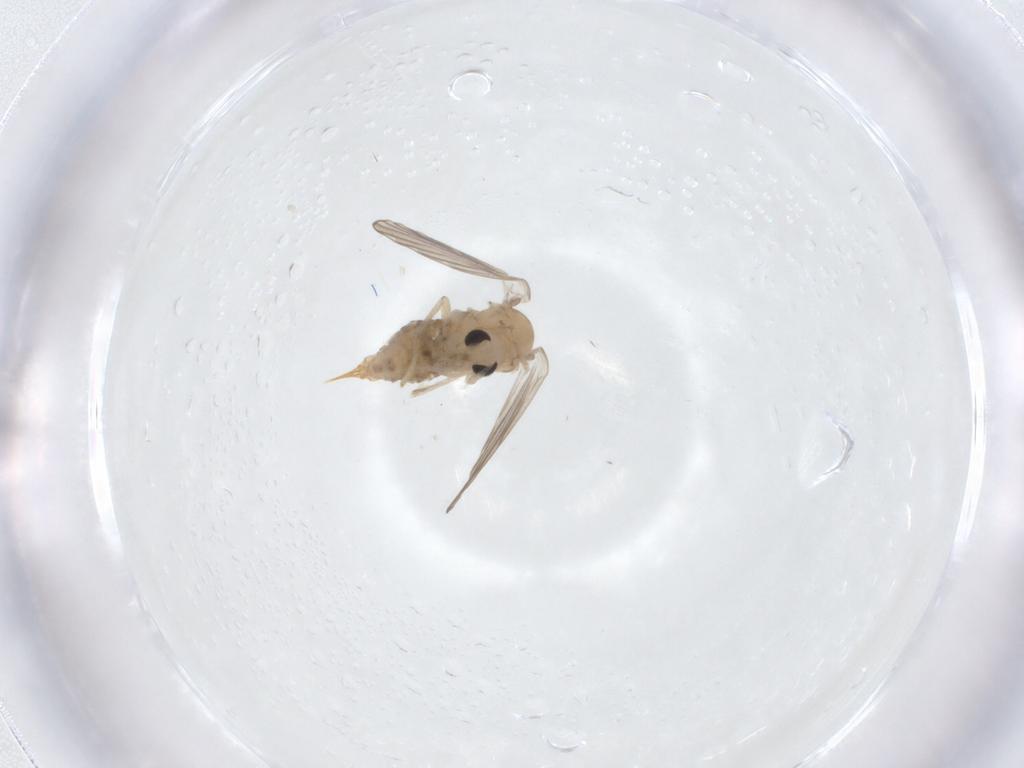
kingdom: Animalia
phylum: Arthropoda
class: Insecta
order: Diptera
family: Psychodidae
